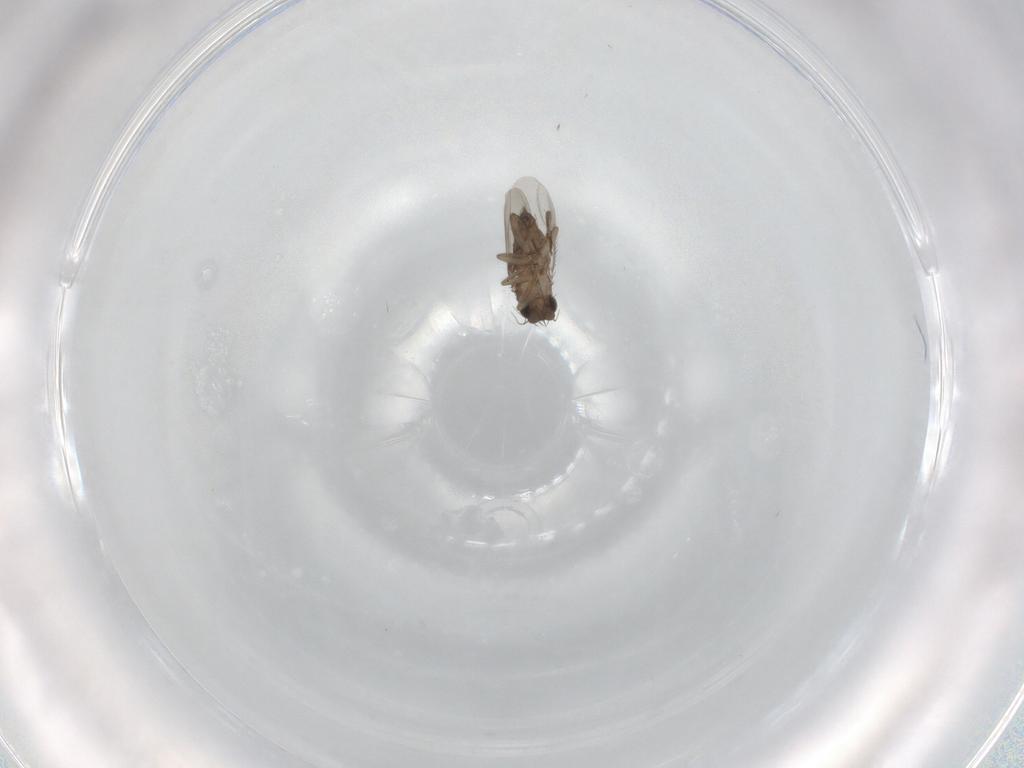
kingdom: Animalia
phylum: Arthropoda
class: Insecta
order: Diptera
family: Phoridae
